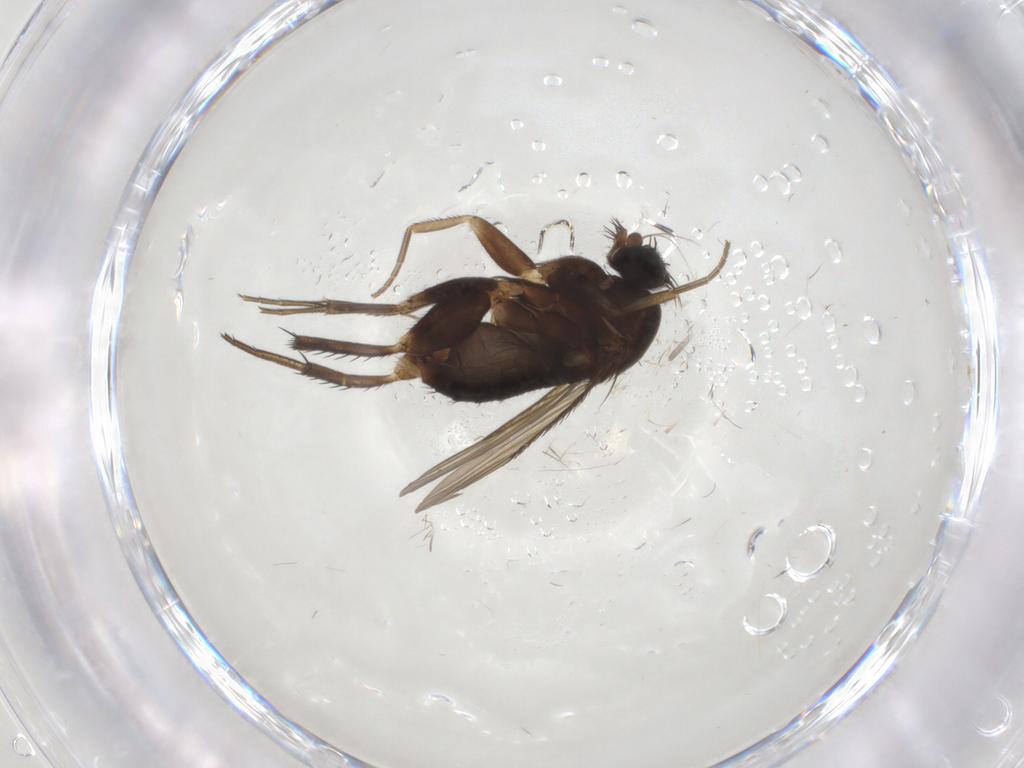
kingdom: Animalia
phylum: Arthropoda
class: Insecta
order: Diptera
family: Phoridae
